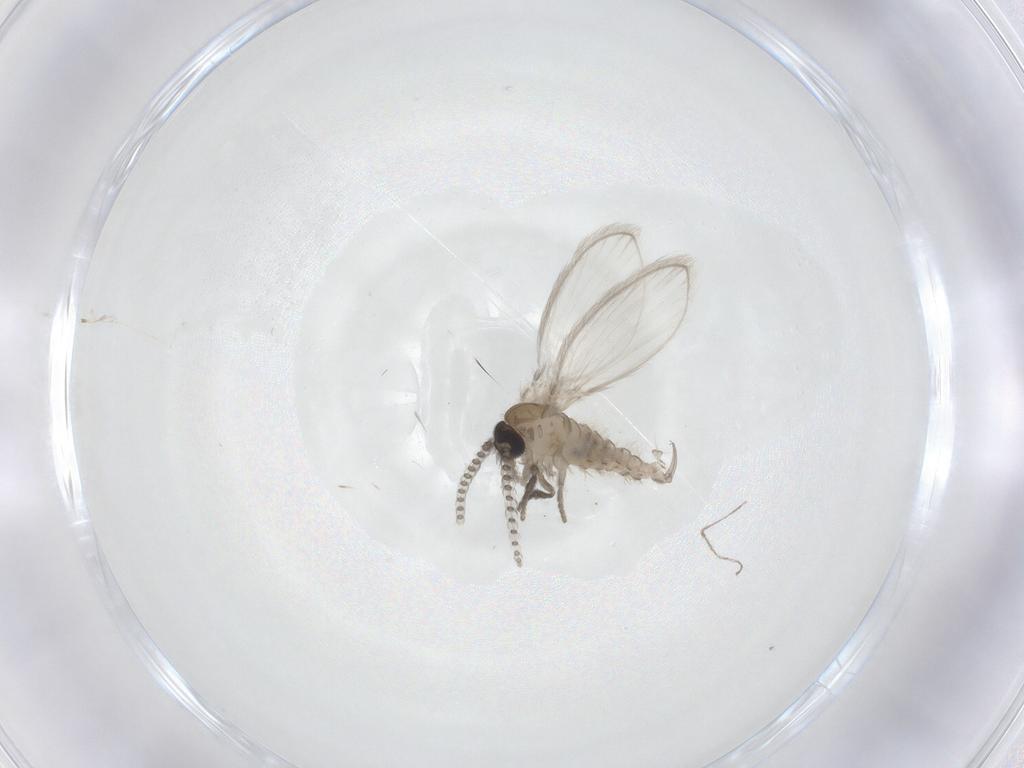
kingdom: Animalia
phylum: Arthropoda
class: Insecta
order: Diptera
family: Psychodidae
